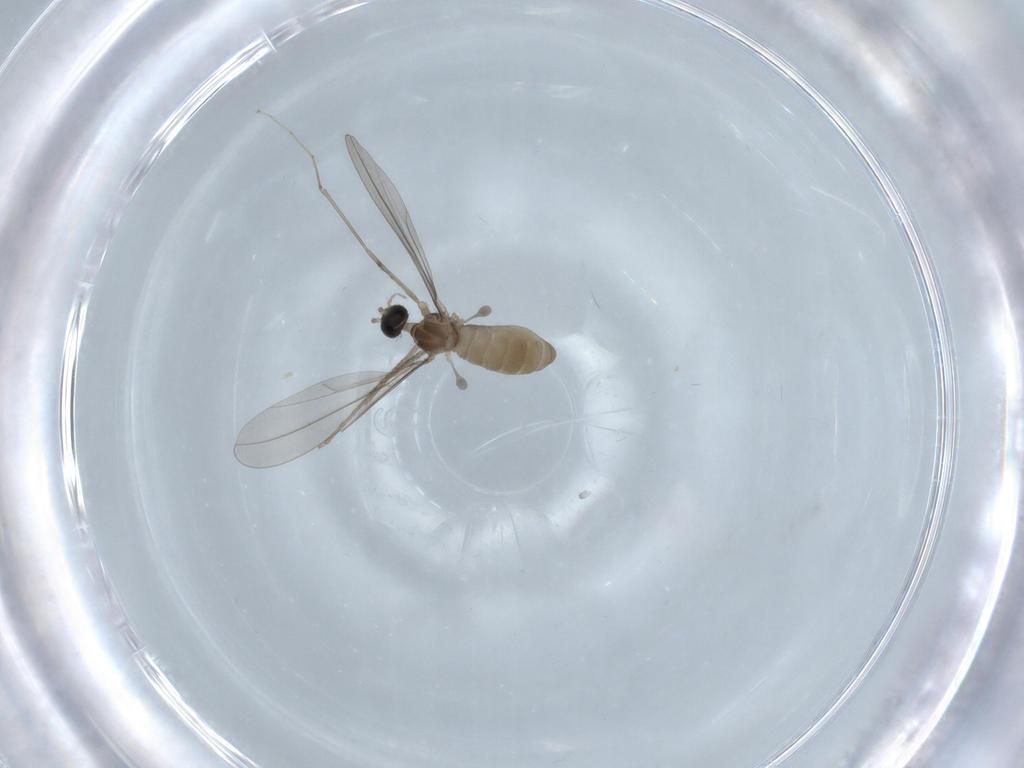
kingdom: Animalia
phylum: Arthropoda
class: Insecta
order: Diptera
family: Cecidomyiidae
